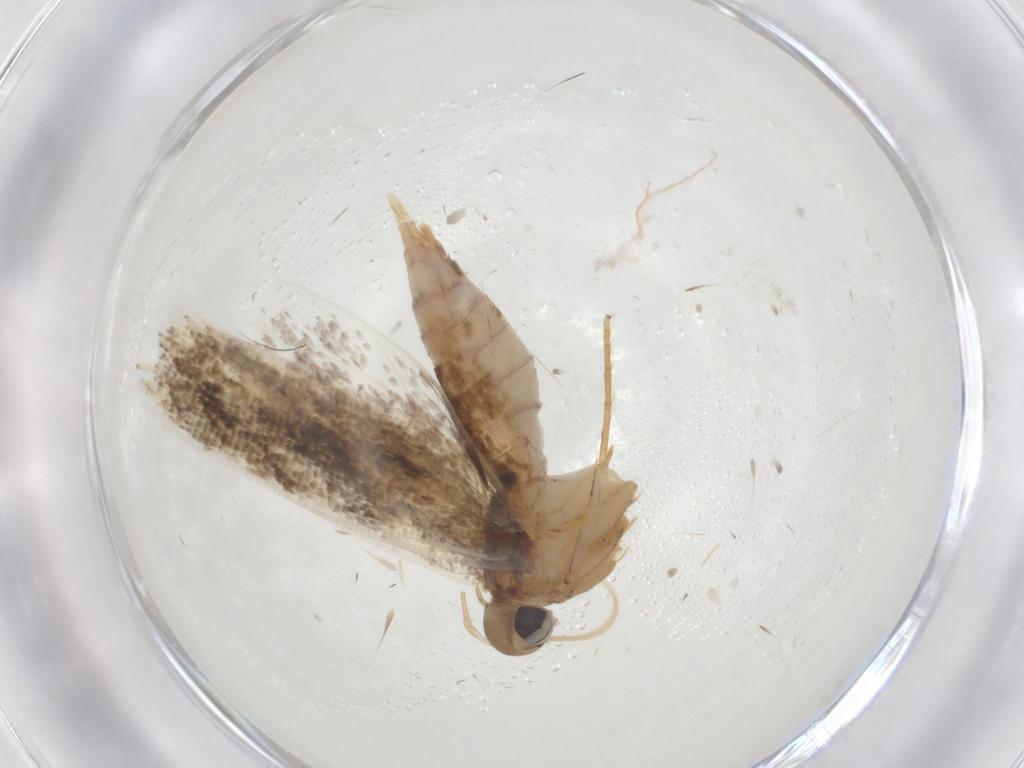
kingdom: Animalia
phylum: Arthropoda
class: Insecta
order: Lepidoptera
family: Gelechiidae
